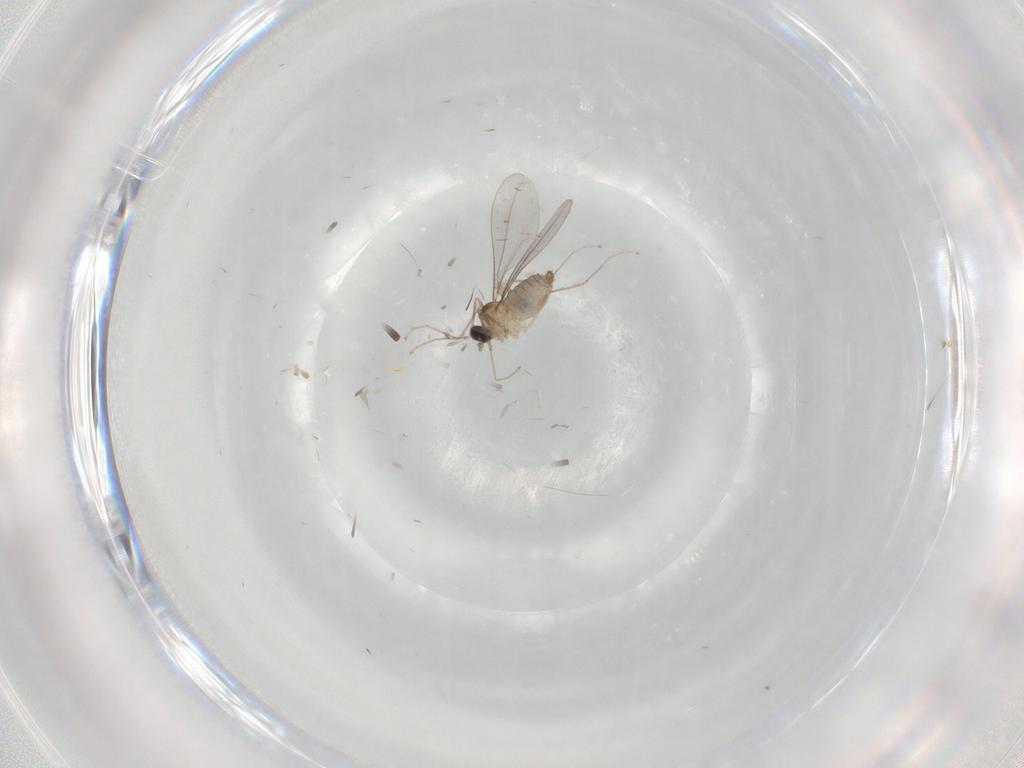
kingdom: Animalia
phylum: Arthropoda
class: Insecta
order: Diptera
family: Cecidomyiidae
